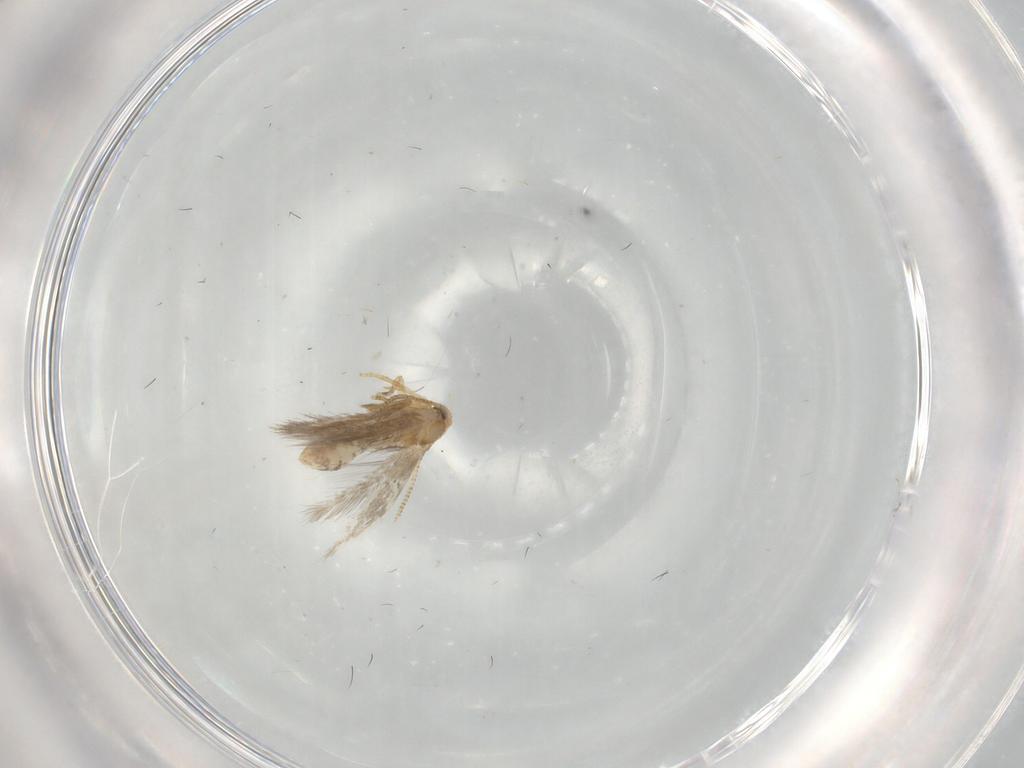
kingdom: Animalia
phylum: Arthropoda
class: Insecta
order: Lepidoptera
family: Nepticulidae
